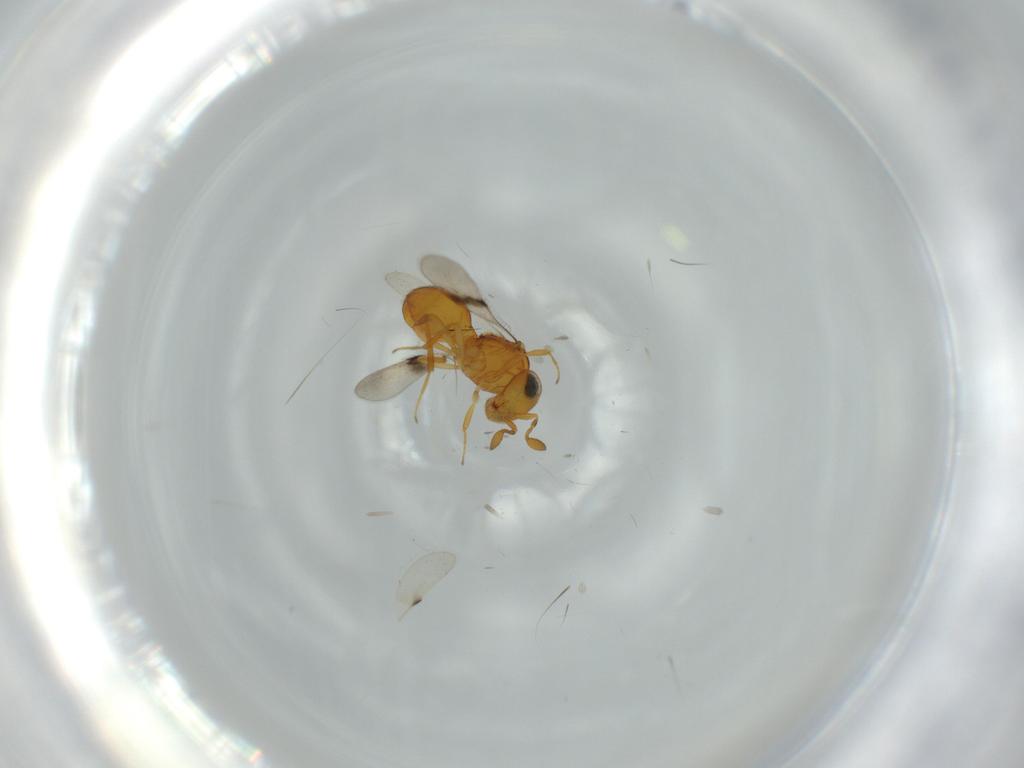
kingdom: Animalia
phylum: Arthropoda
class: Insecta
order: Hymenoptera
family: Scelionidae
